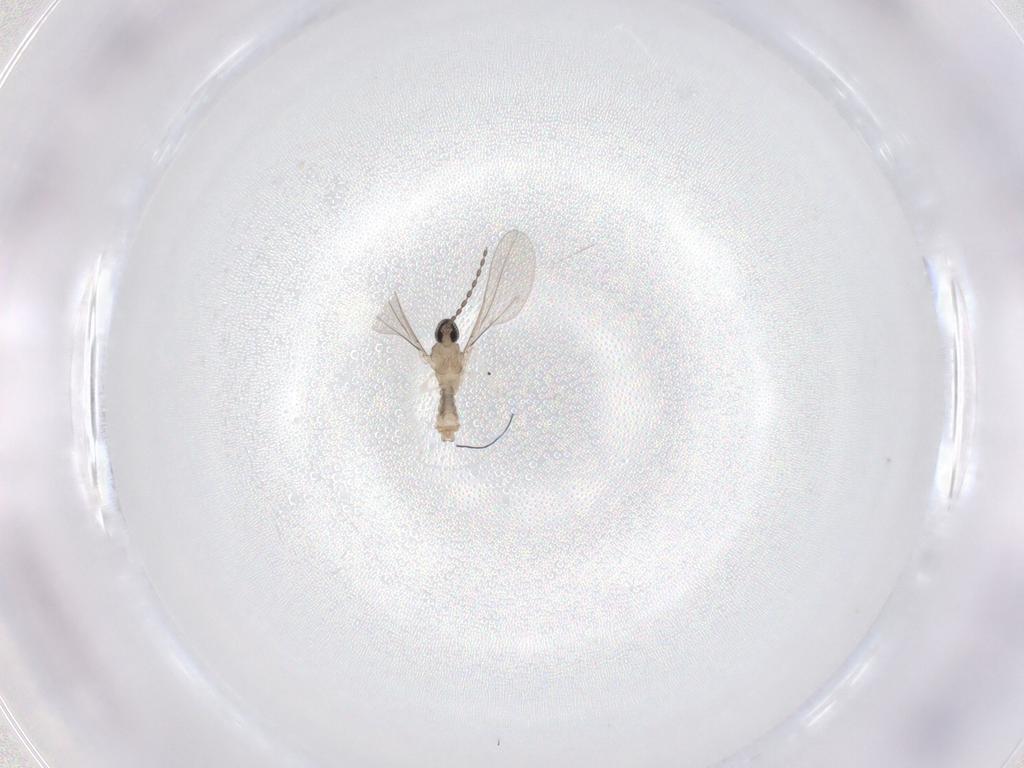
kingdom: Animalia
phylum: Arthropoda
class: Insecta
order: Diptera
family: Cecidomyiidae
